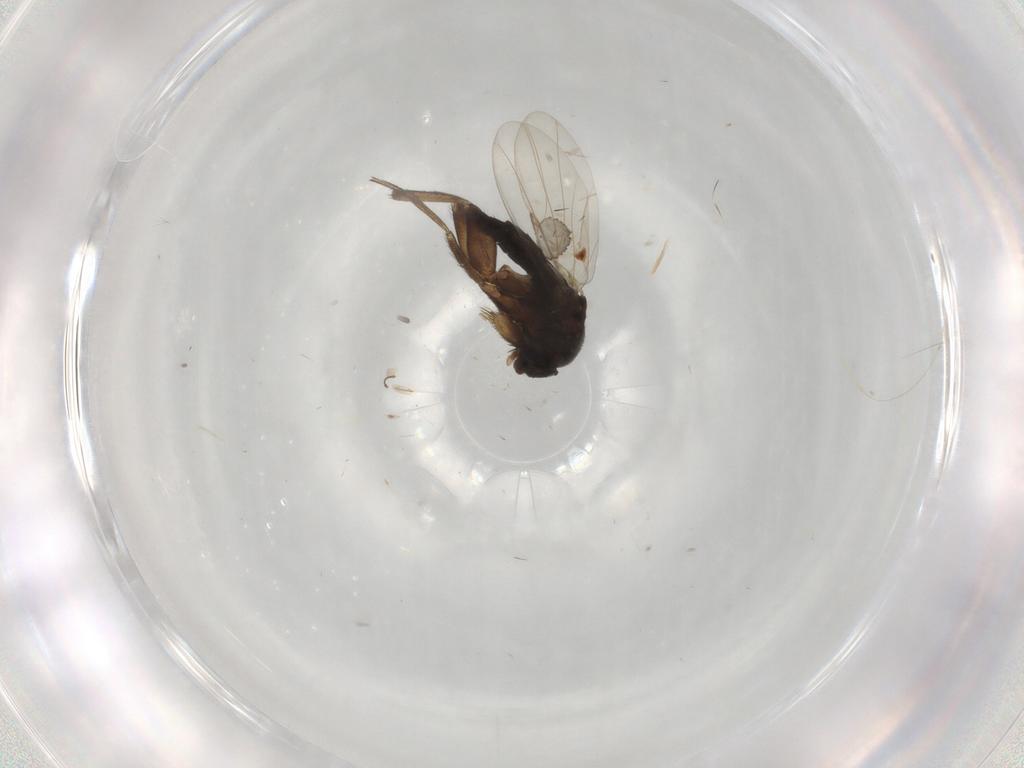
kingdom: Animalia
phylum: Arthropoda
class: Insecta
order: Diptera
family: Phoridae
